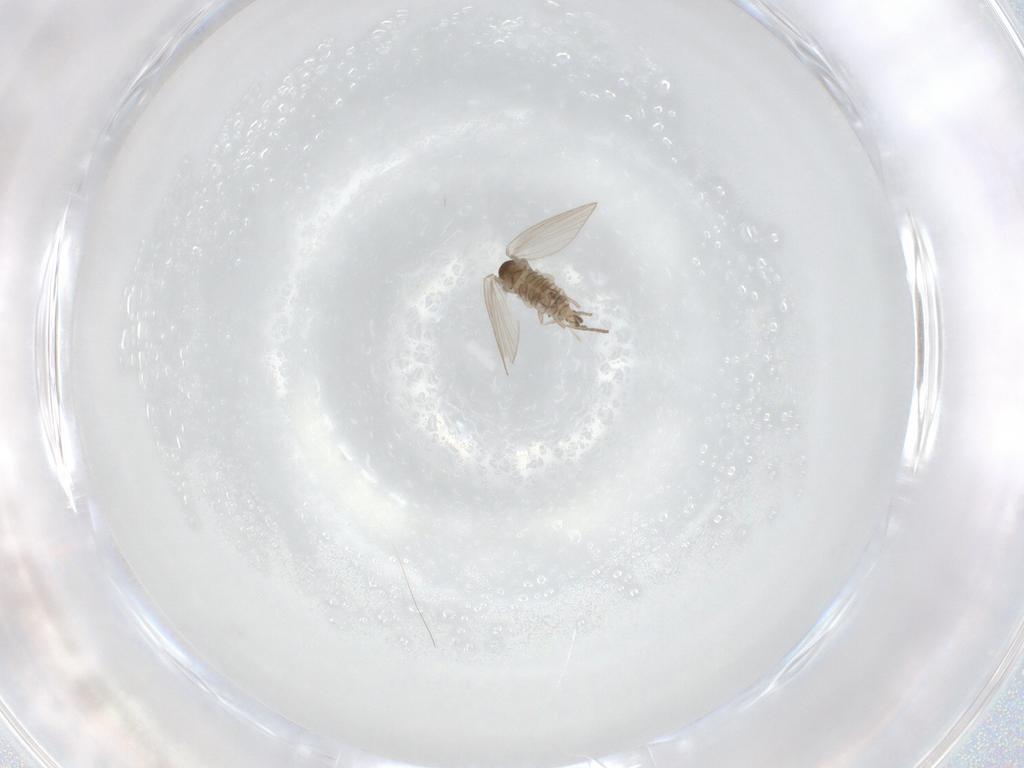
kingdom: Animalia
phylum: Arthropoda
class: Insecta
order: Diptera
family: Psychodidae
